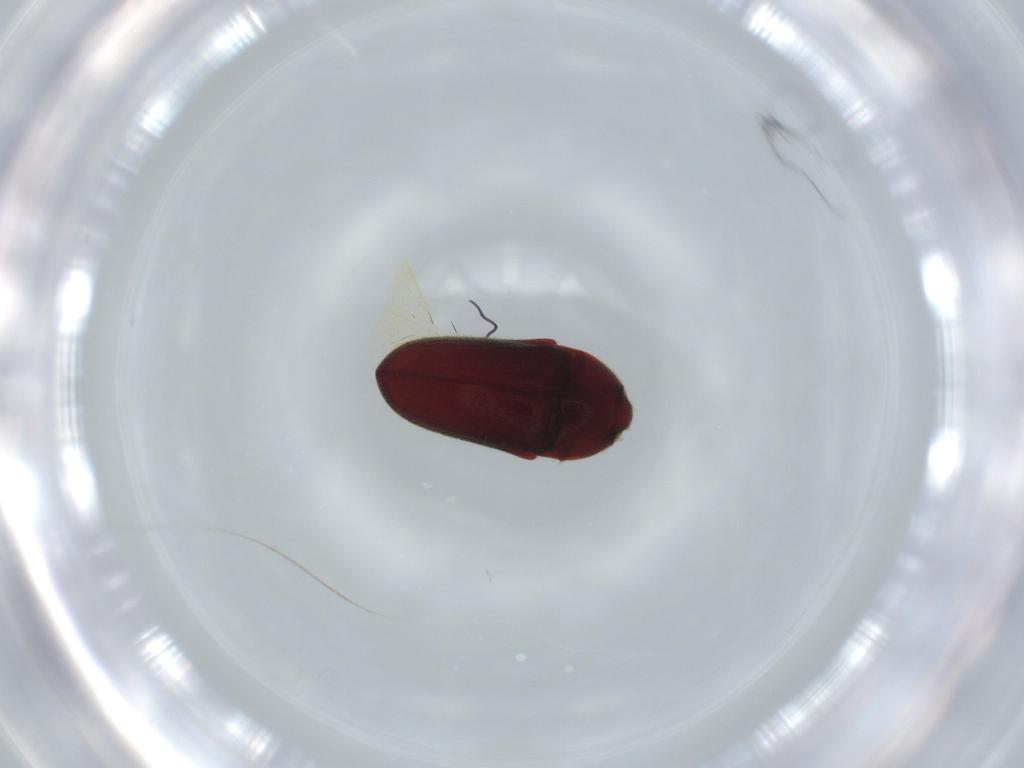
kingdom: Animalia
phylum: Arthropoda
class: Insecta
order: Coleoptera
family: Throscidae
